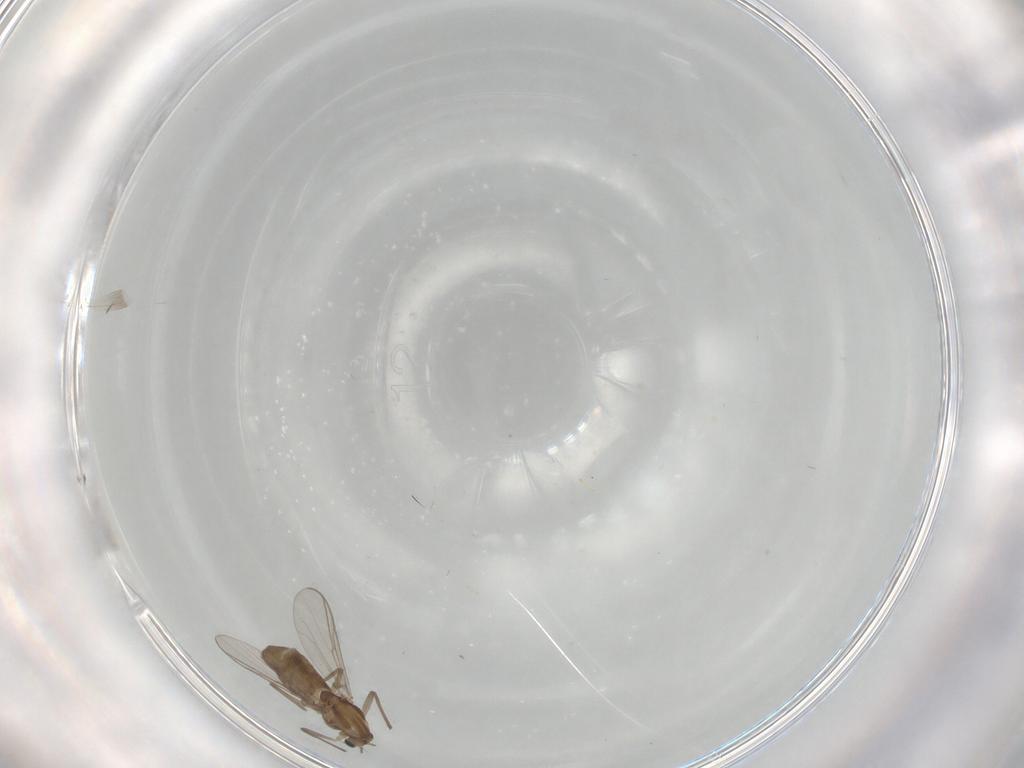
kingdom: Animalia
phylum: Arthropoda
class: Insecta
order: Diptera
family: Chironomidae
